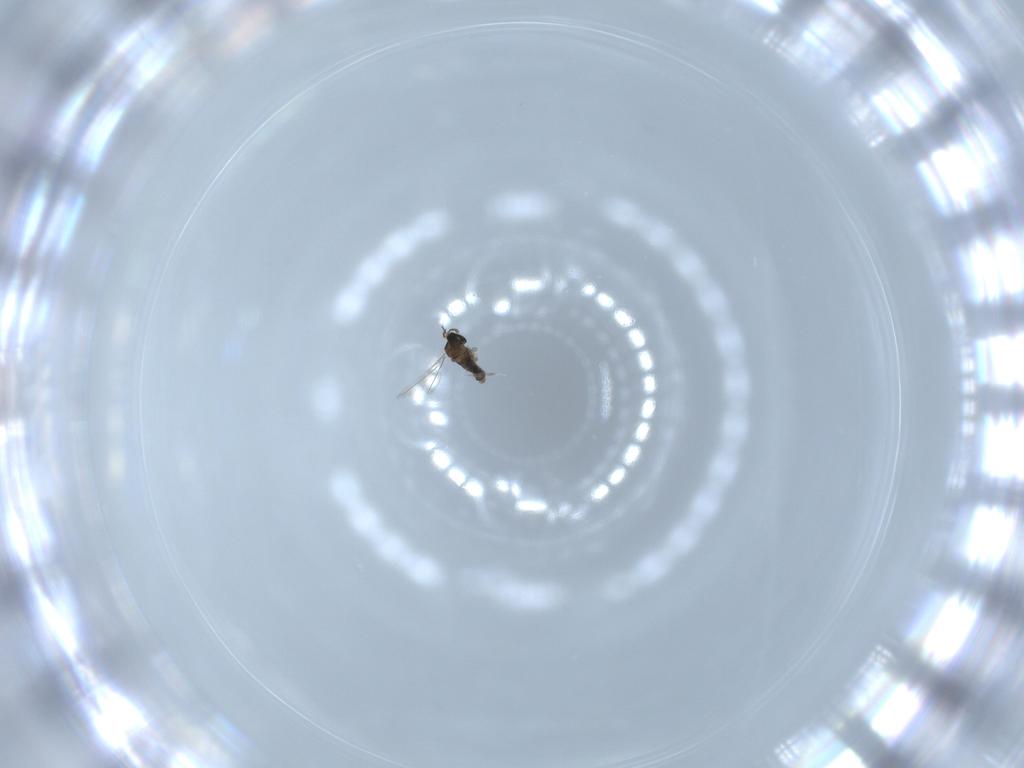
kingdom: Animalia
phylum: Arthropoda
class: Insecta
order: Diptera
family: Cecidomyiidae
